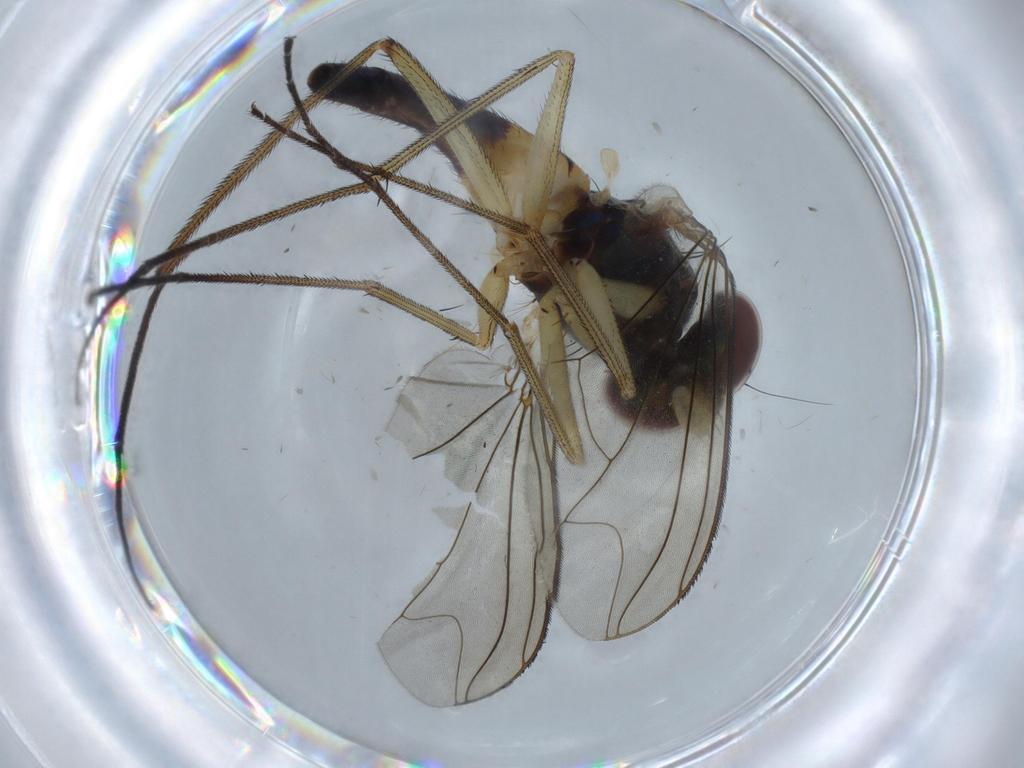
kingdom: Animalia
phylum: Arthropoda
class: Insecta
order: Diptera
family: Dolichopodidae
